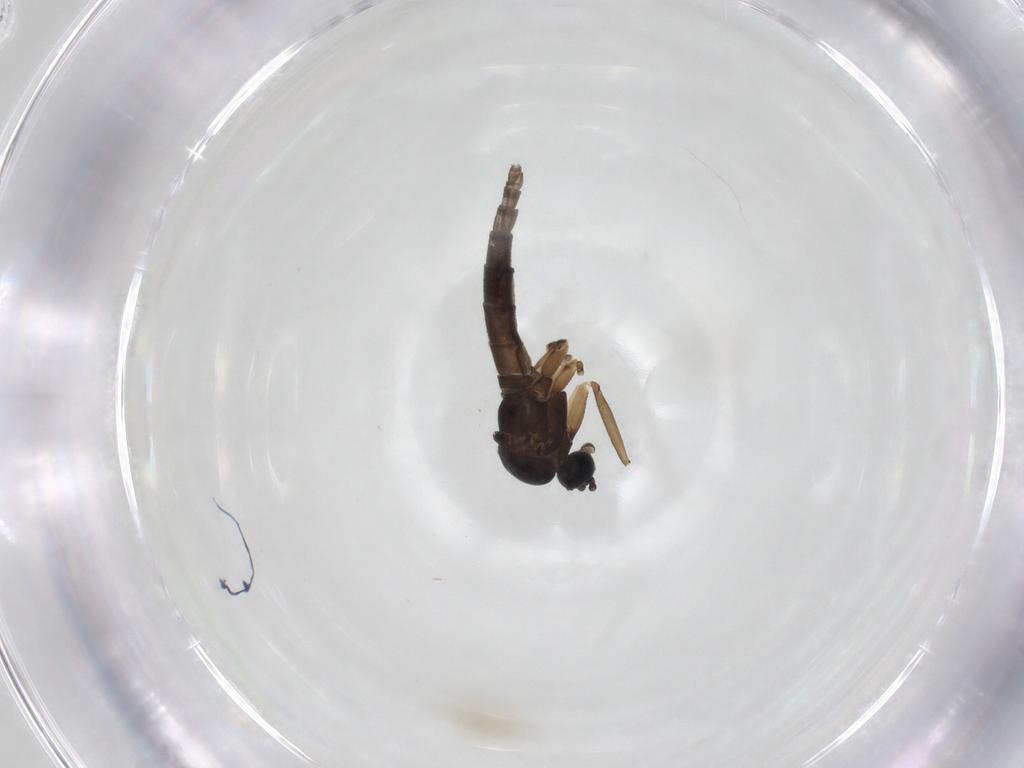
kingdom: Animalia
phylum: Arthropoda
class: Insecta
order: Diptera
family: Sciaridae
